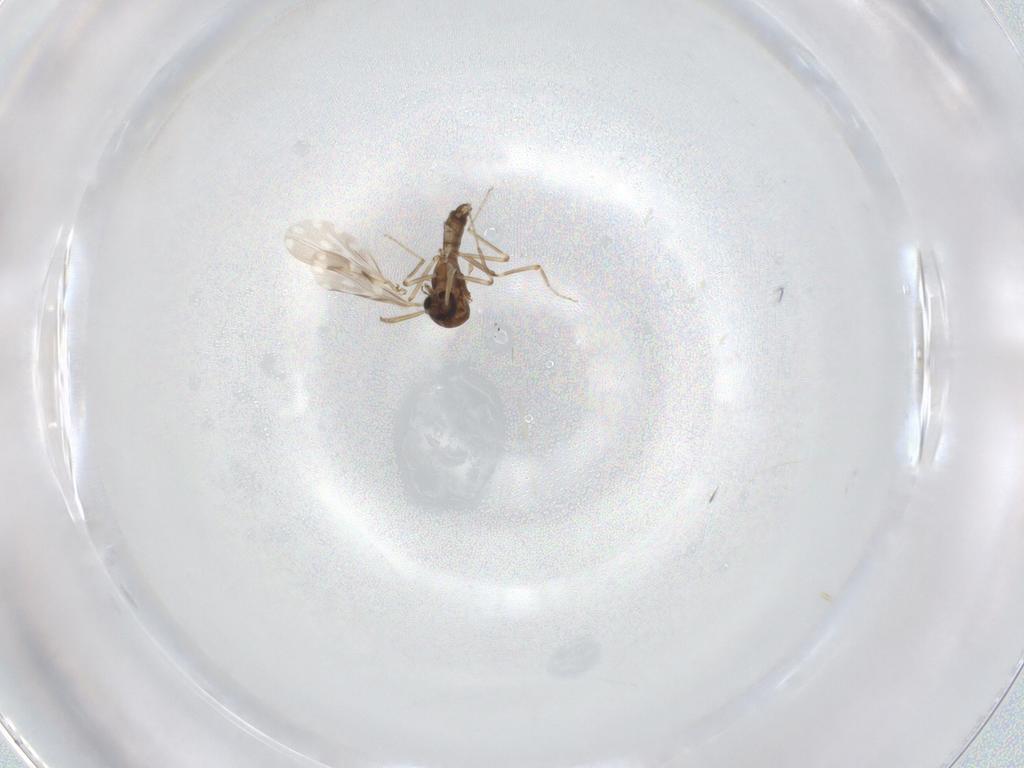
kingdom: Animalia
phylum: Arthropoda
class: Insecta
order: Diptera
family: Ceratopogonidae
